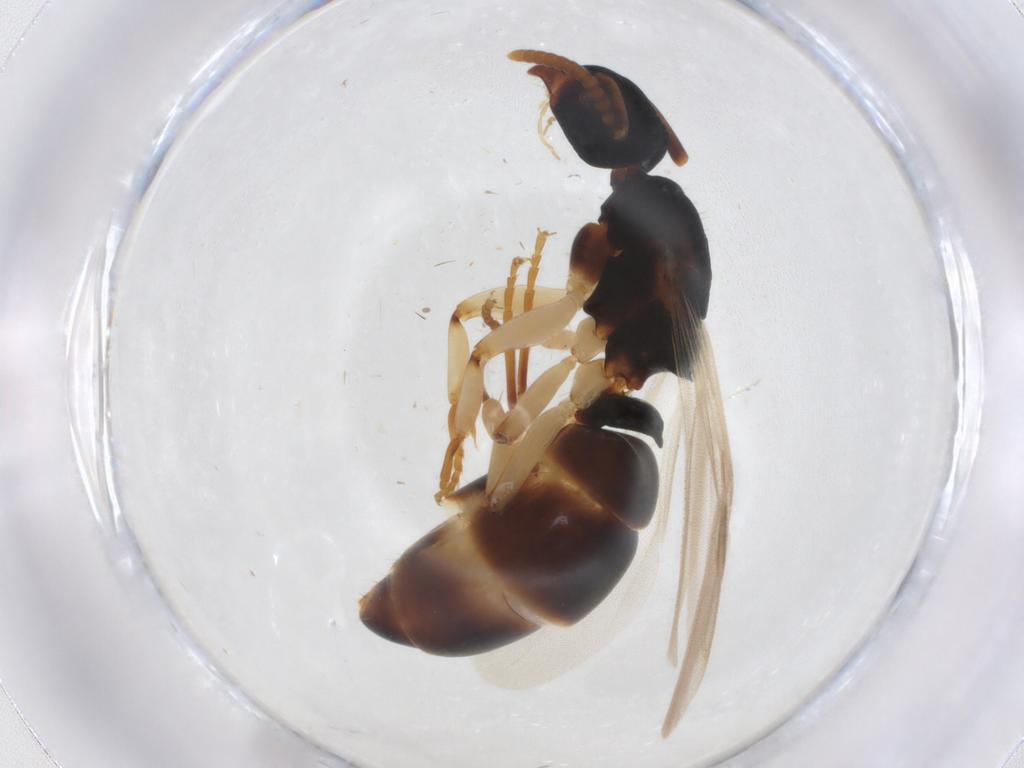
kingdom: Animalia
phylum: Arthropoda
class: Insecta
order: Hymenoptera
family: Formicidae
